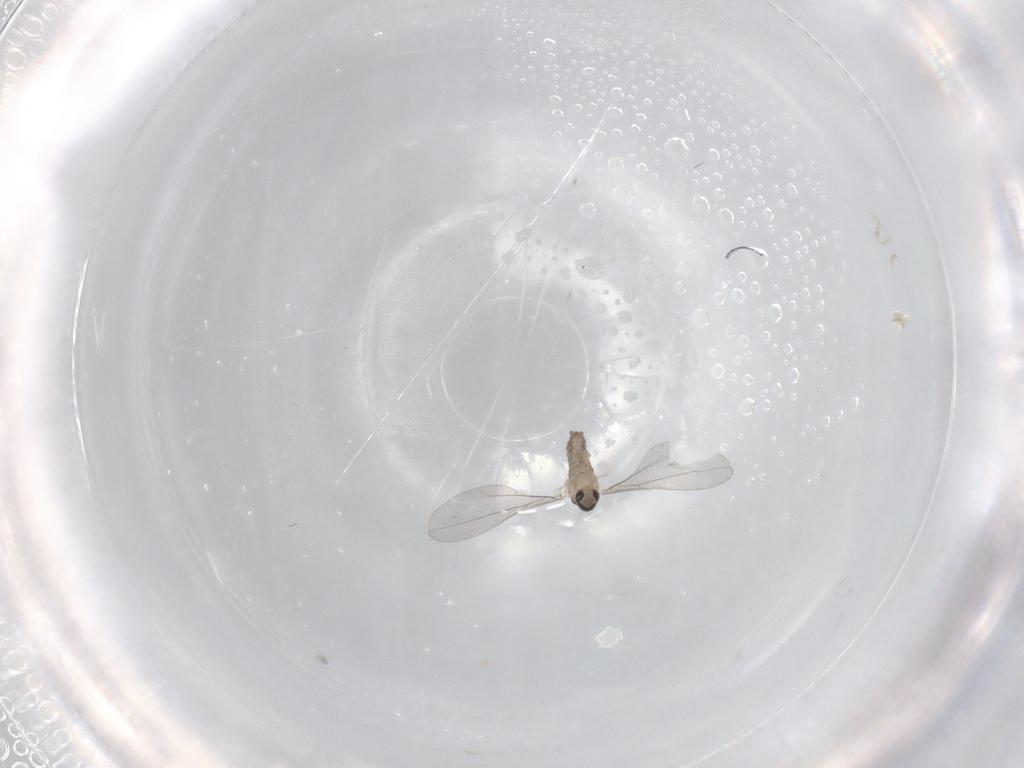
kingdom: Animalia
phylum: Arthropoda
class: Insecta
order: Diptera
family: Cecidomyiidae
